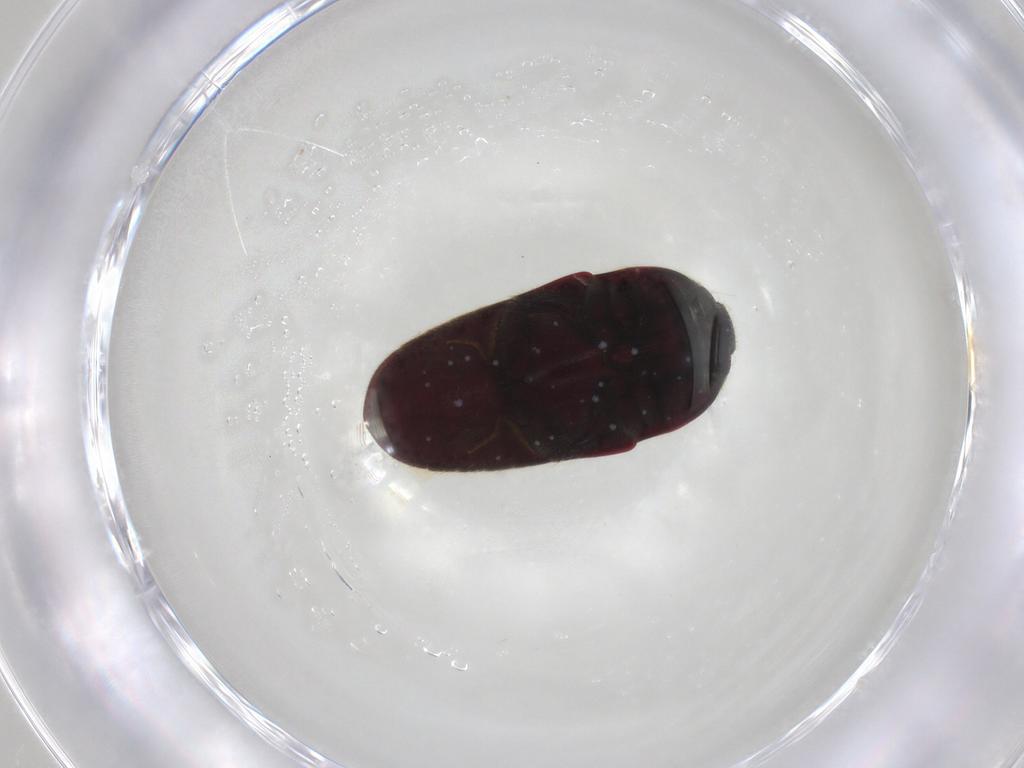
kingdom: Animalia
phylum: Arthropoda
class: Insecta
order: Coleoptera
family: Throscidae
